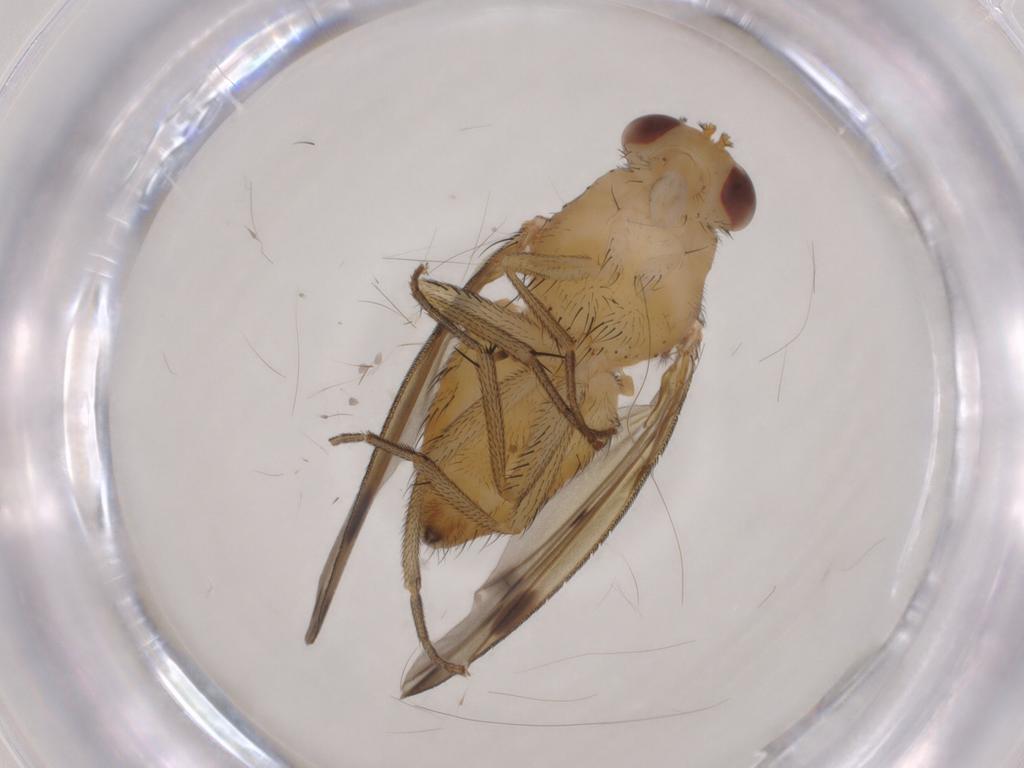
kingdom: Animalia
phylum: Arthropoda
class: Insecta
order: Diptera
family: Lauxaniidae
